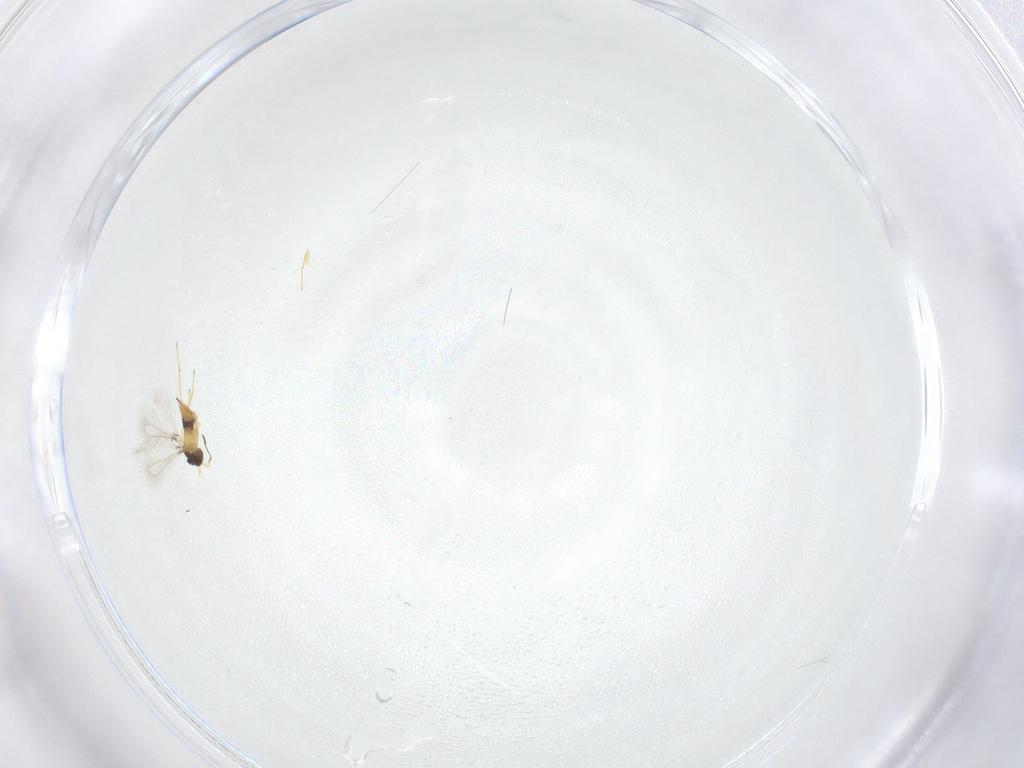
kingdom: Animalia
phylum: Arthropoda
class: Insecta
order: Hymenoptera
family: Mymaridae
